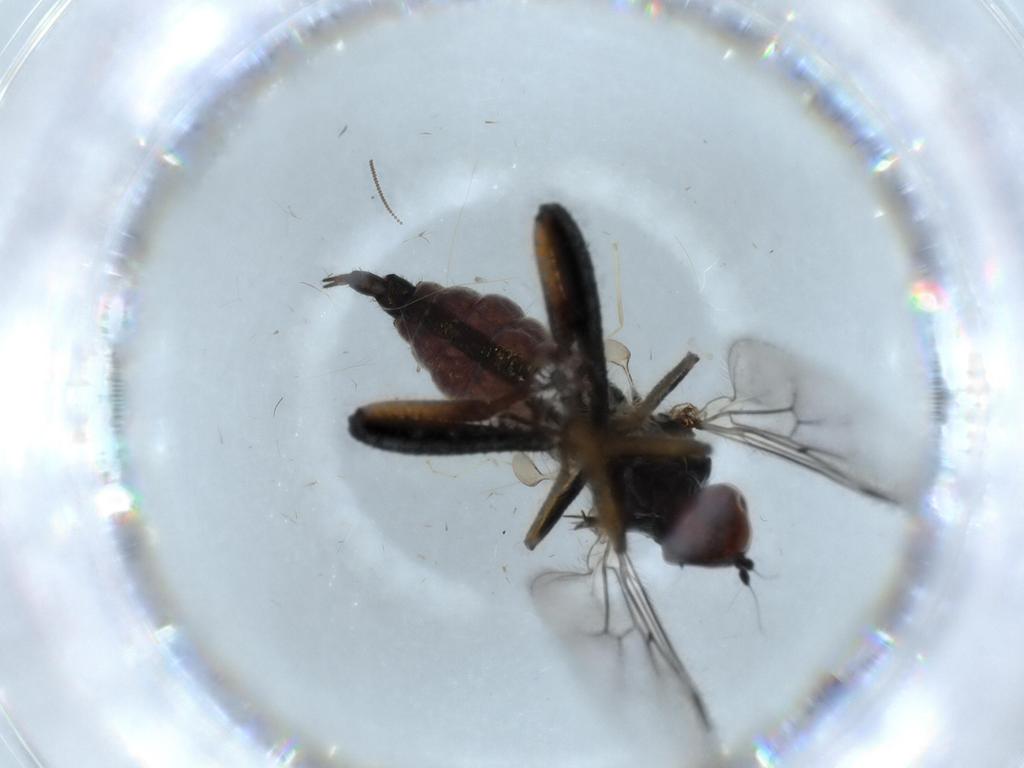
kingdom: Animalia
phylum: Arthropoda
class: Insecta
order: Diptera
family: Hybotidae
